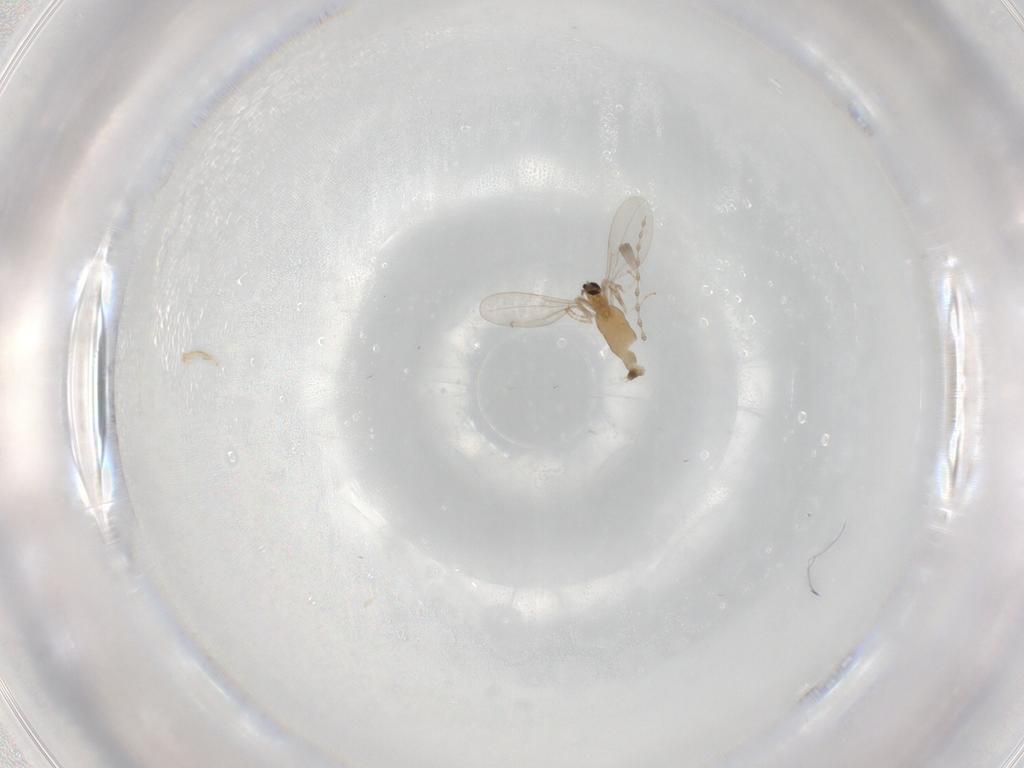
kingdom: Animalia
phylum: Arthropoda
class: Insecta
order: Diptera
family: Cecidomyiidae
